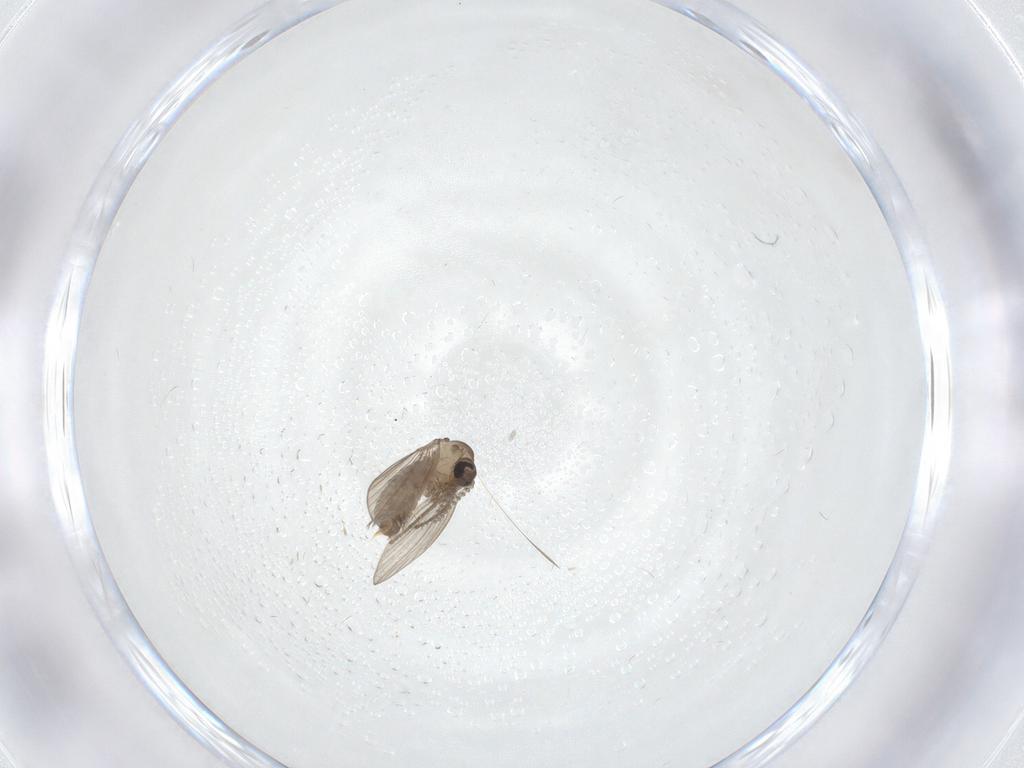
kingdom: Animalia
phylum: Arthropoda
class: Insecta
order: Diptera
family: Psychodidae
